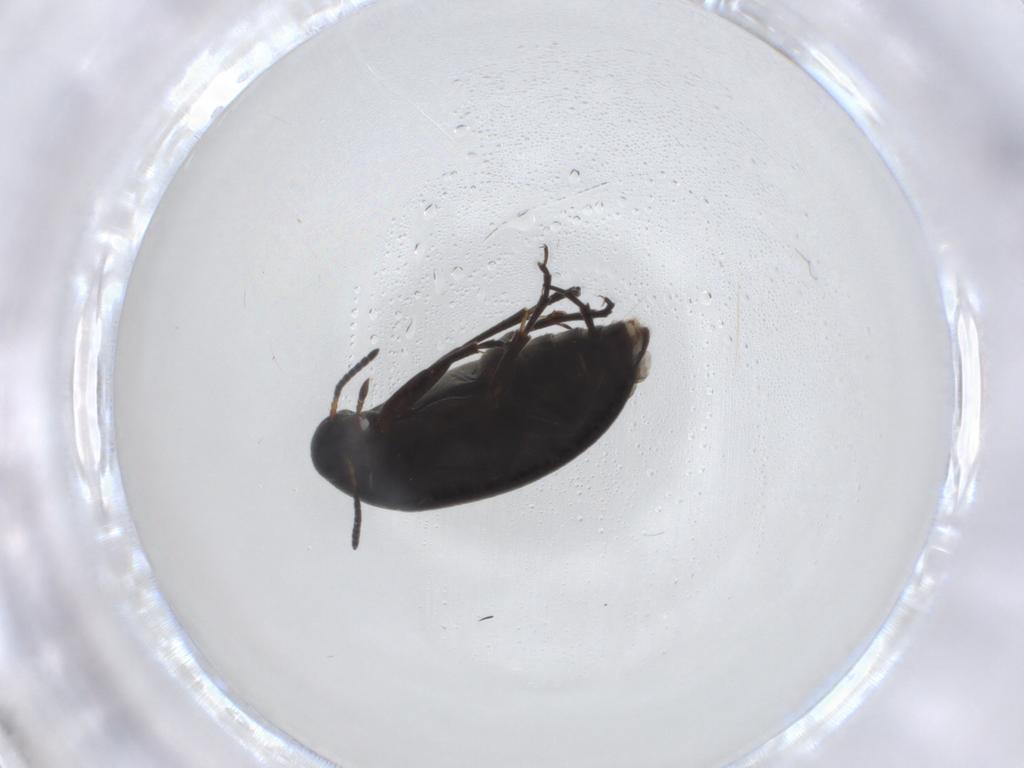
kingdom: Animalia
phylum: Arthropoda
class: Insecta
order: Coleoptera
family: Scraptiidae
